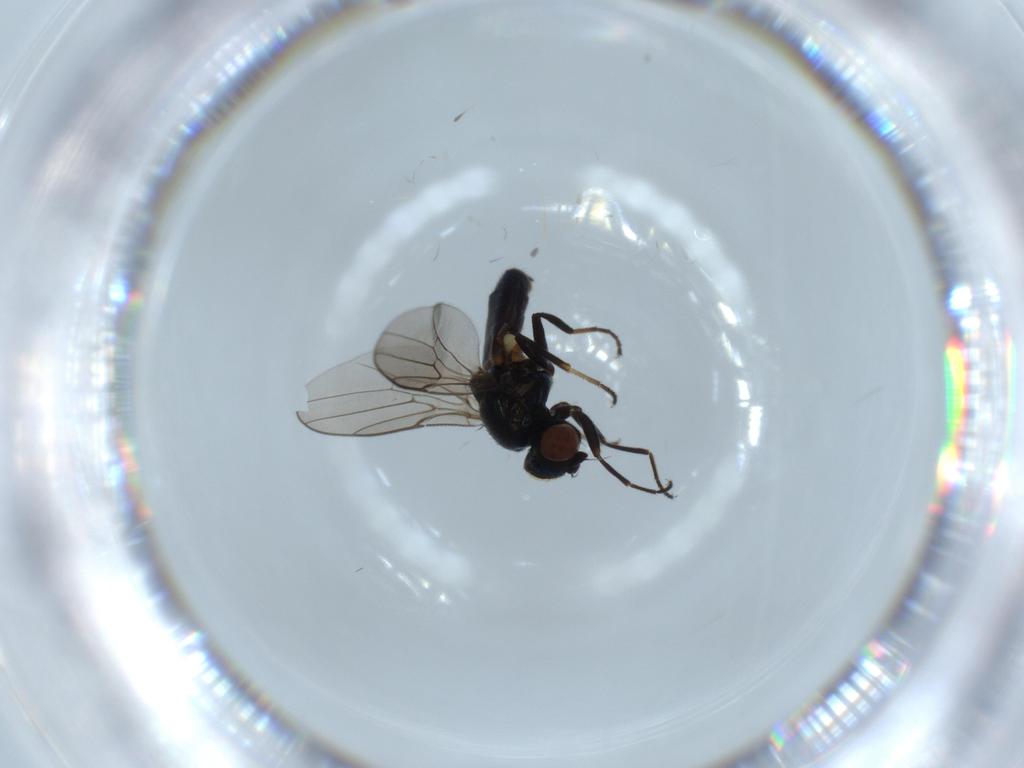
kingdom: Animalia
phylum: Arthropoda
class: Insecta
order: Diptera
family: Chloropidae
